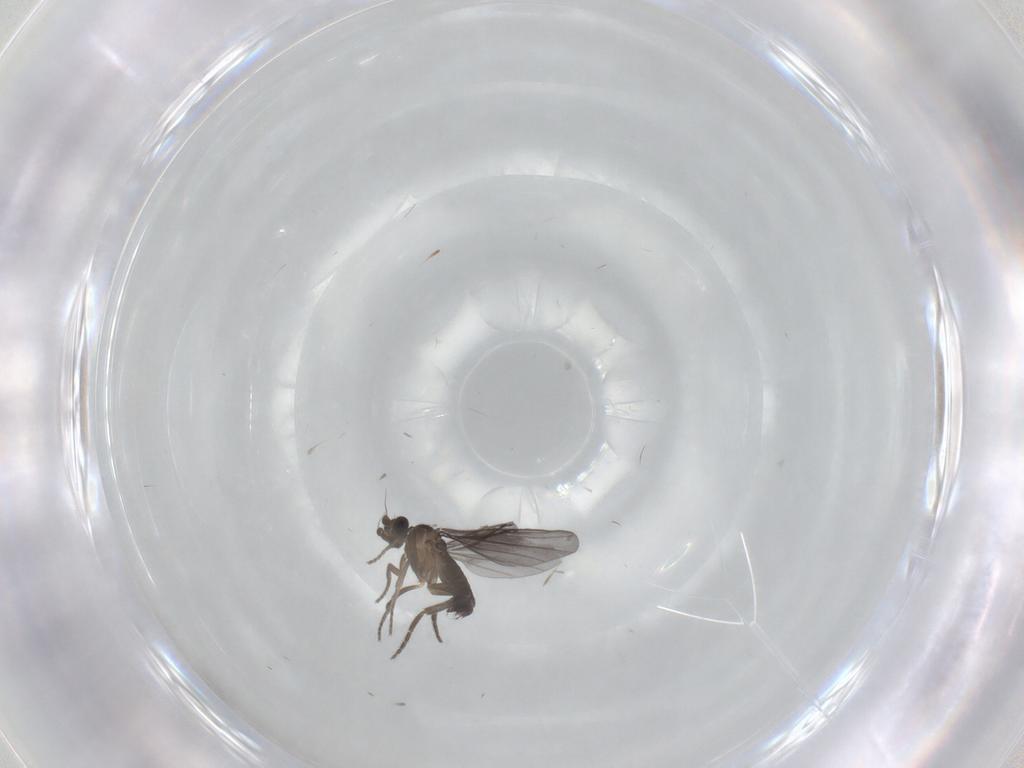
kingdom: Animalia
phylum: Arthropoda
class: Insecta
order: Diptera
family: Phoridae
